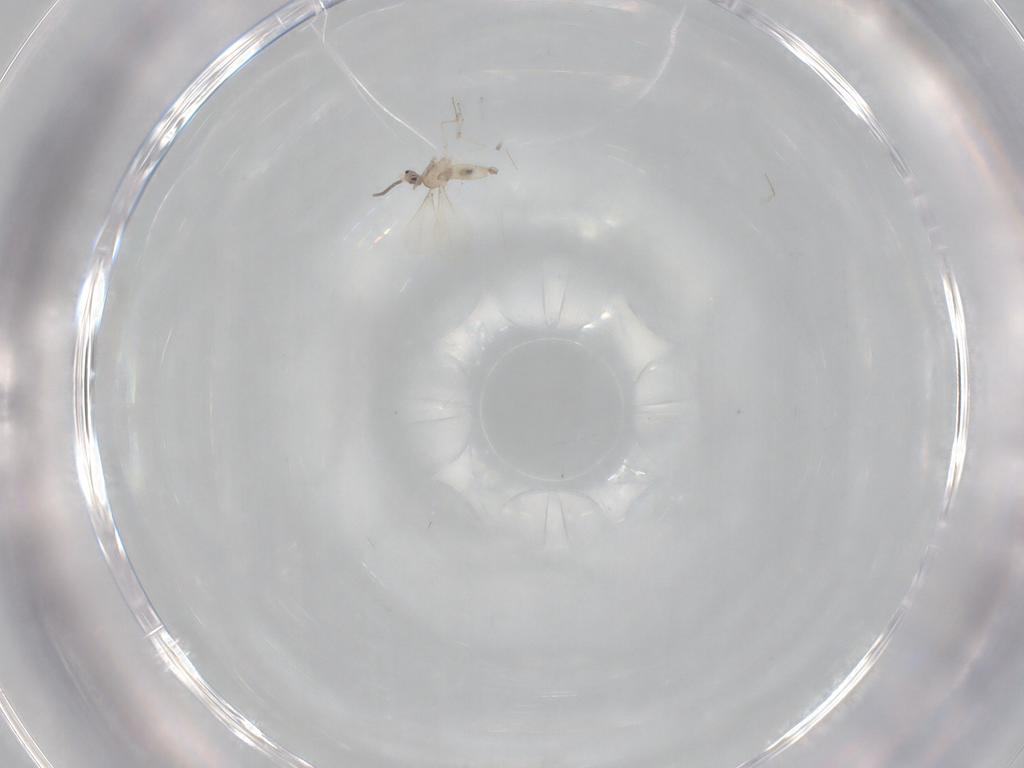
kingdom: Animalia
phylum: Arthropoda
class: Insecta
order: Diptera
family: Cecidomyiidae
